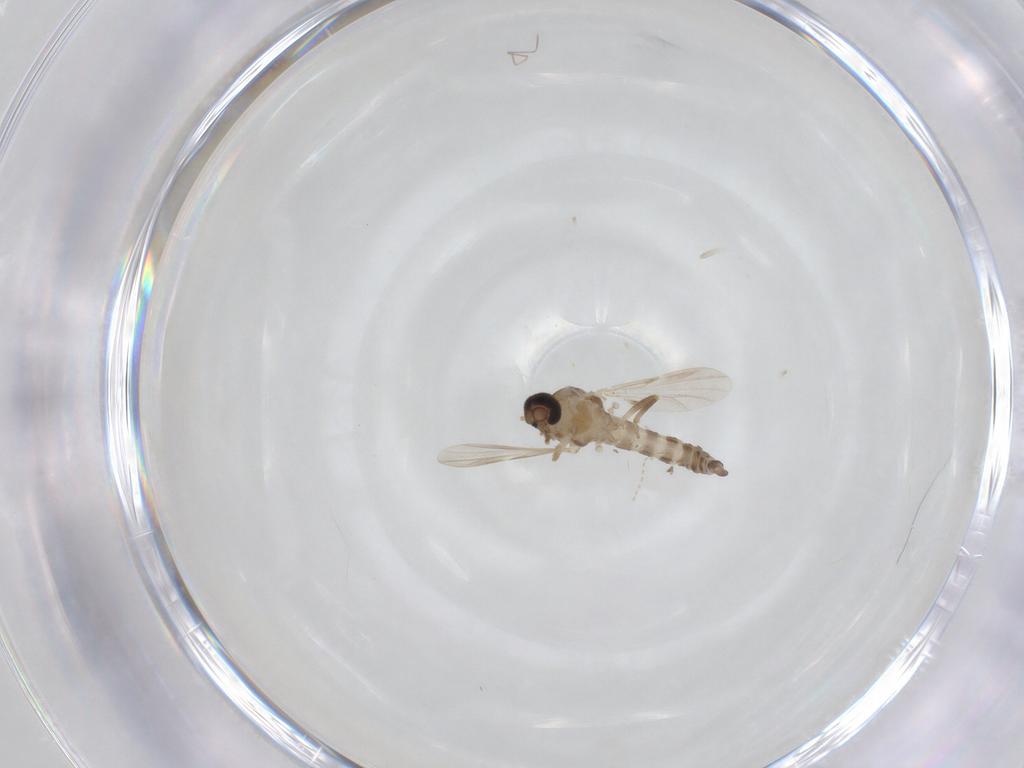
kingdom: Animalia
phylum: Arthropoda
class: Insecta
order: Diptera
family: Ceratopogonidae
